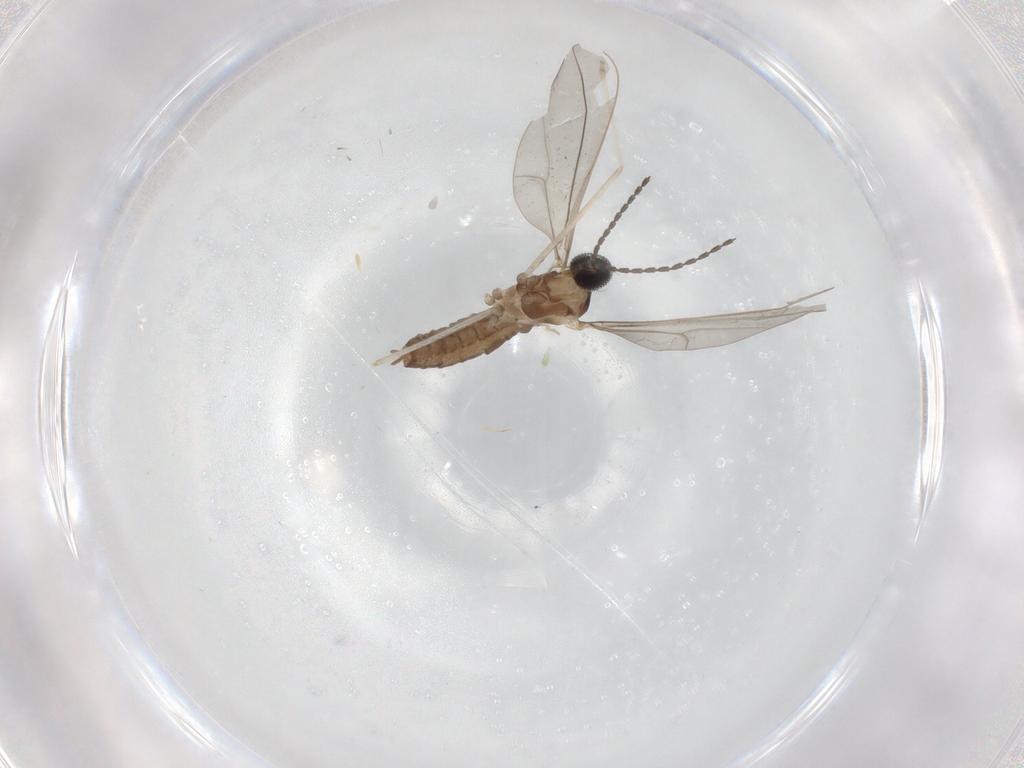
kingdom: Animalia
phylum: Arthropoda
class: Insecta
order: Diptera
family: Cecidomyiidae
